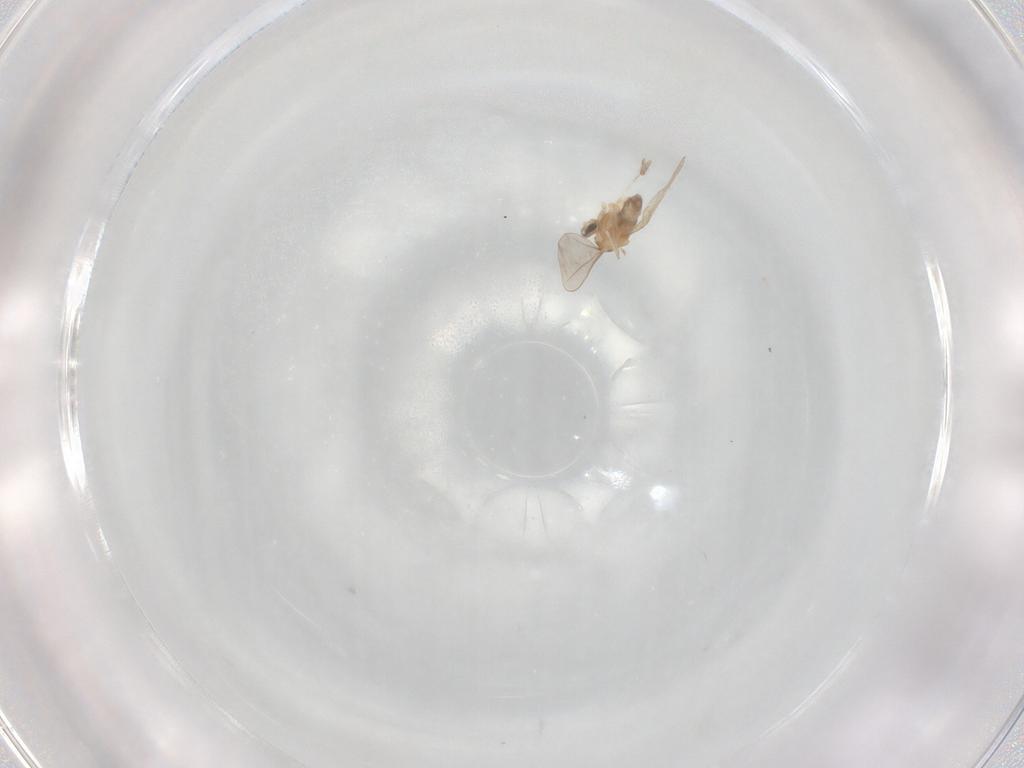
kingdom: Animalia
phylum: Arthropoda
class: Insecta
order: Diptera
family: Cecidomyiidae
